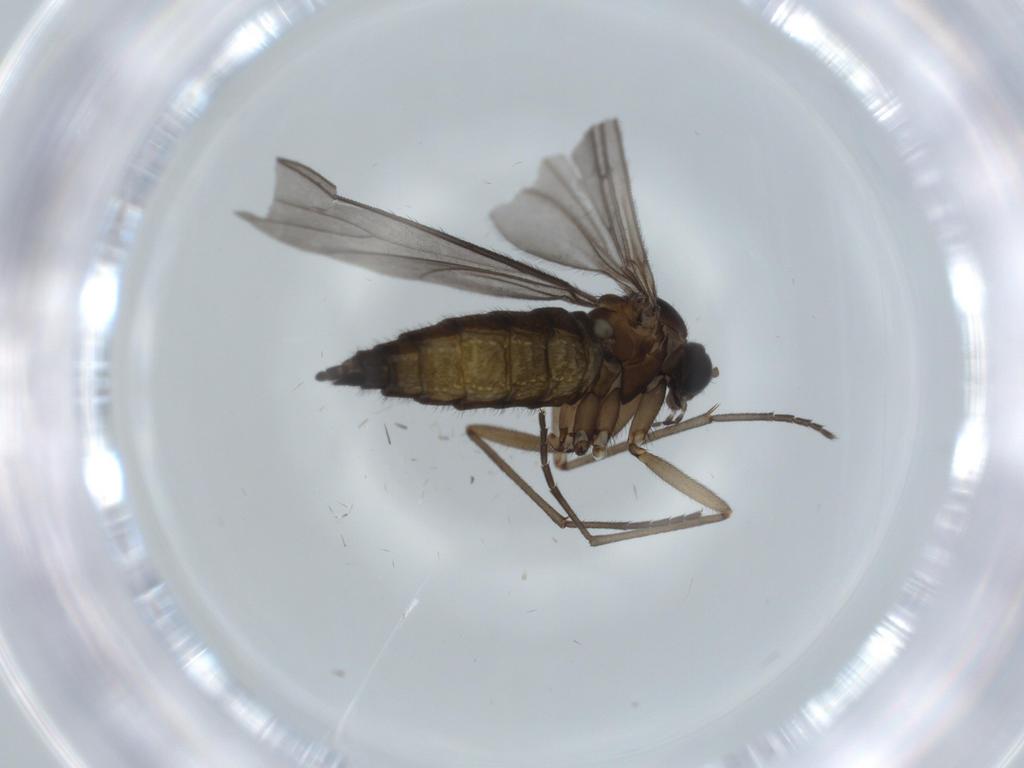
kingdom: Animalia
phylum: Arthropoda
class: Insecta
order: Diptera
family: Sciaridae
